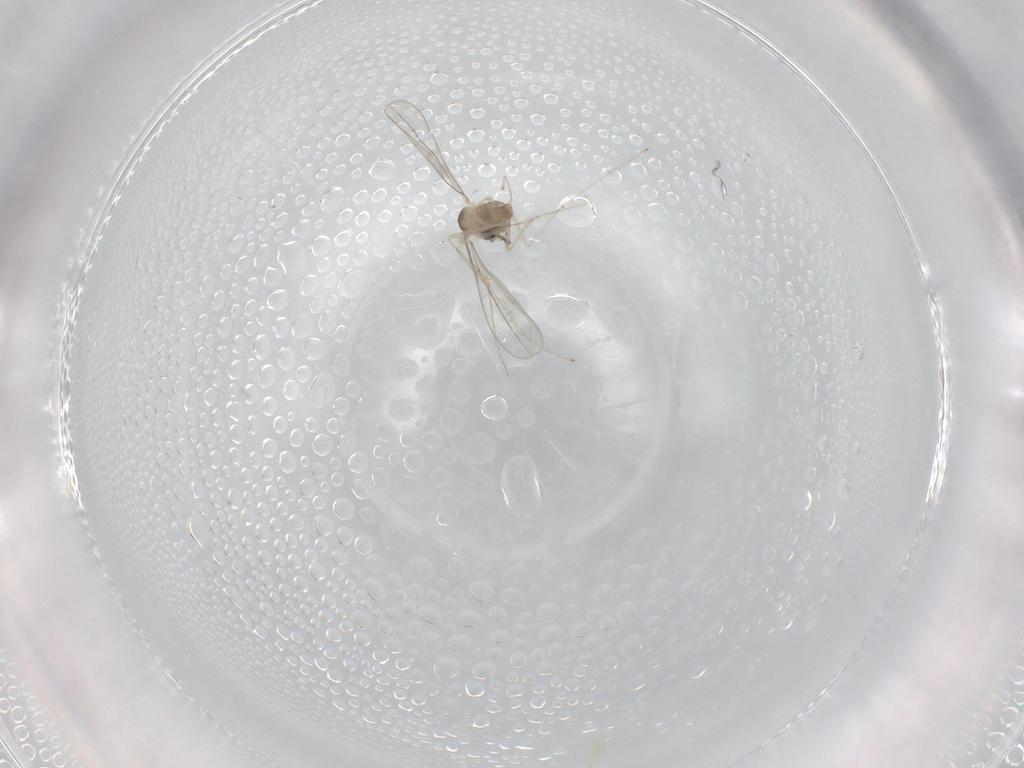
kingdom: Animalia
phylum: Arthropoda
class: Insecta
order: Diptera
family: Cecidomyiidae
